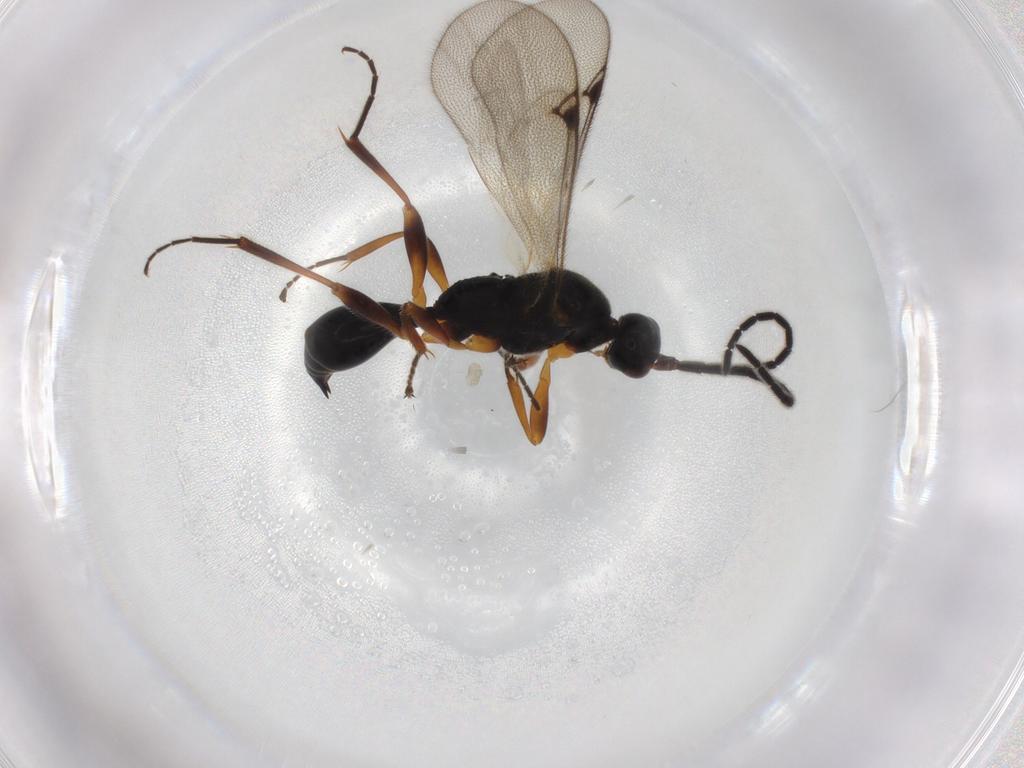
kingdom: Animalia
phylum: Arthropoda
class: Insecta
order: Hymenoptera
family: Proctotrupidae
